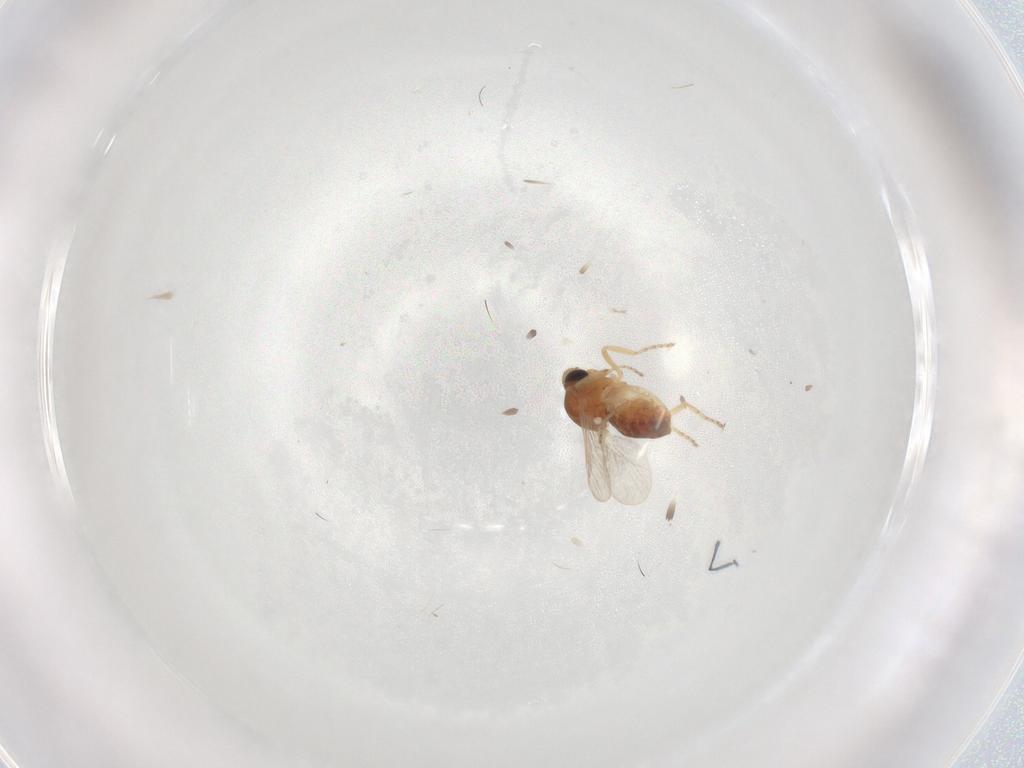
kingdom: Animalia
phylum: Arthropoda
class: Insecta
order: Diptera
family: Ceratopogonidae
